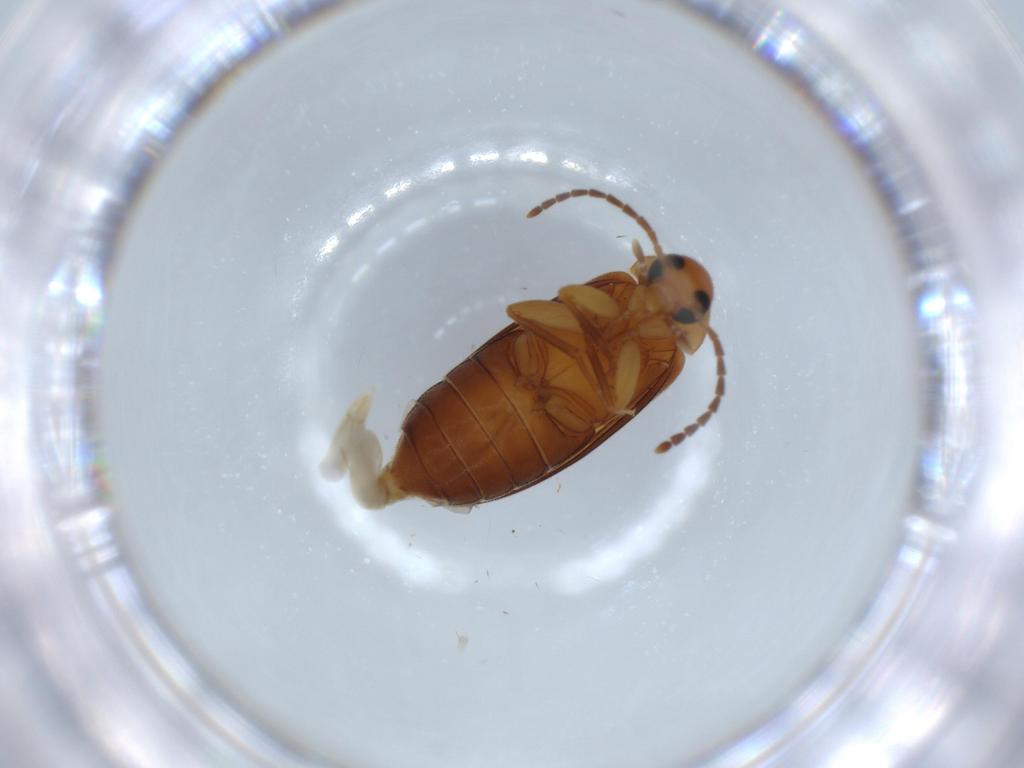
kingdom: Animalia
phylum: Arthropoda
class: Insecta
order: Coleoptera
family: Scraptiidae
